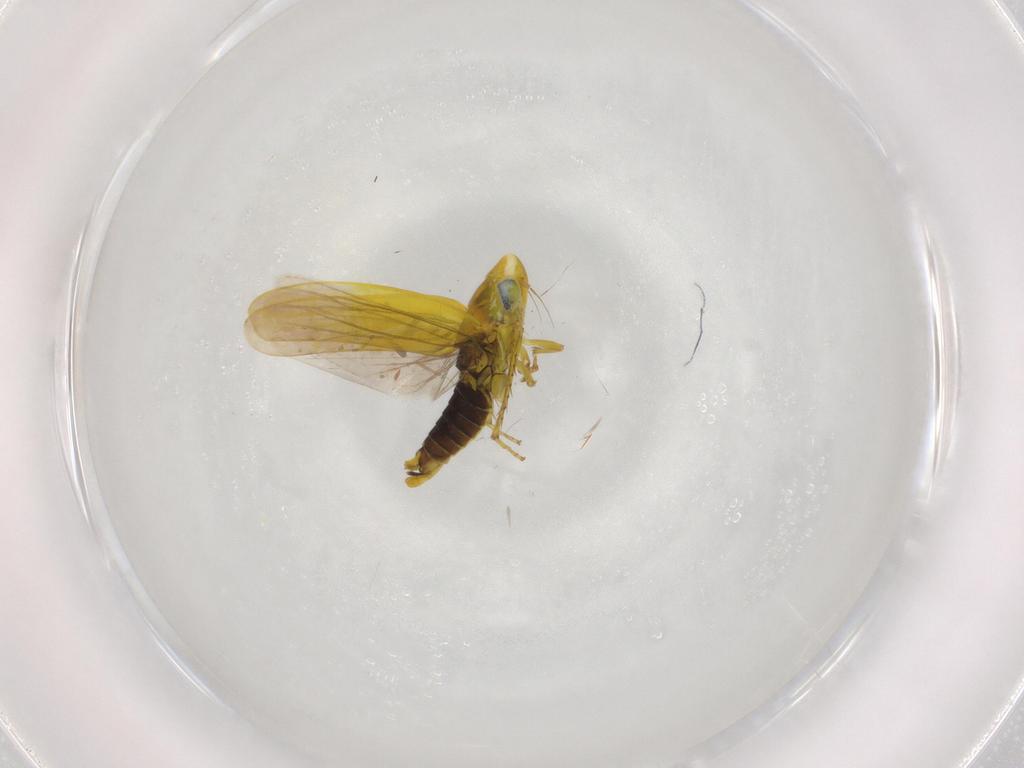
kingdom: Animalia
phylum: Arthropoda
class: Insecta
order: Hemiptera
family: Cicadellidae
